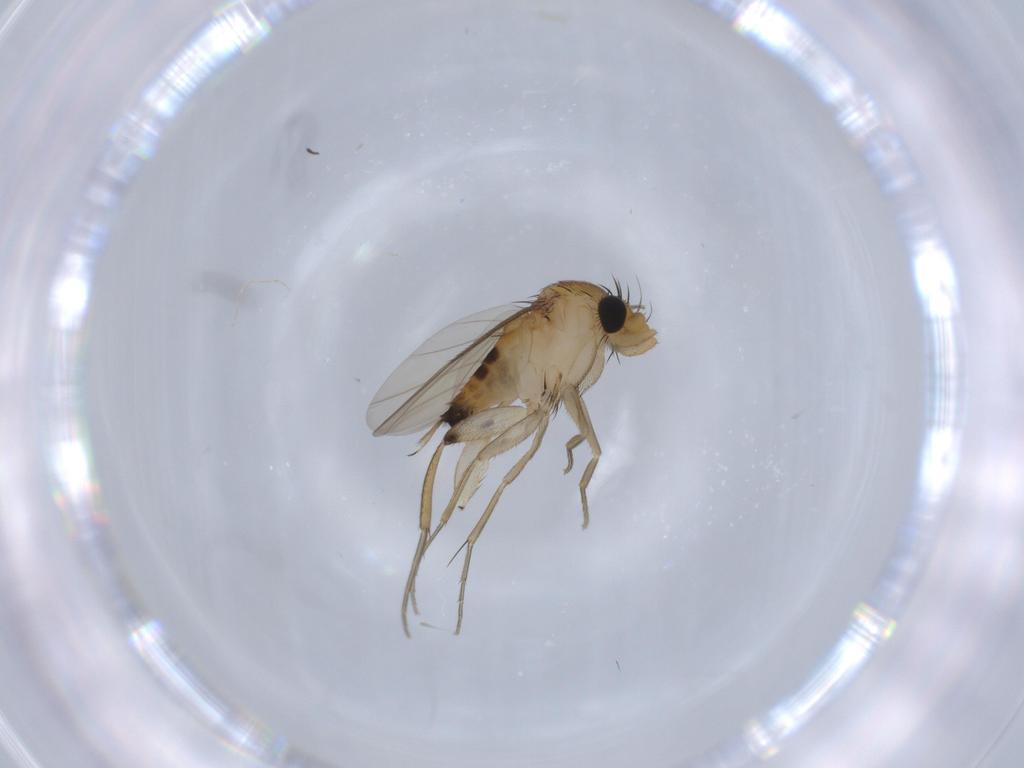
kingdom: Animalia
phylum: Arthropoda
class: Insecta
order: Diptera
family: Phoridae
